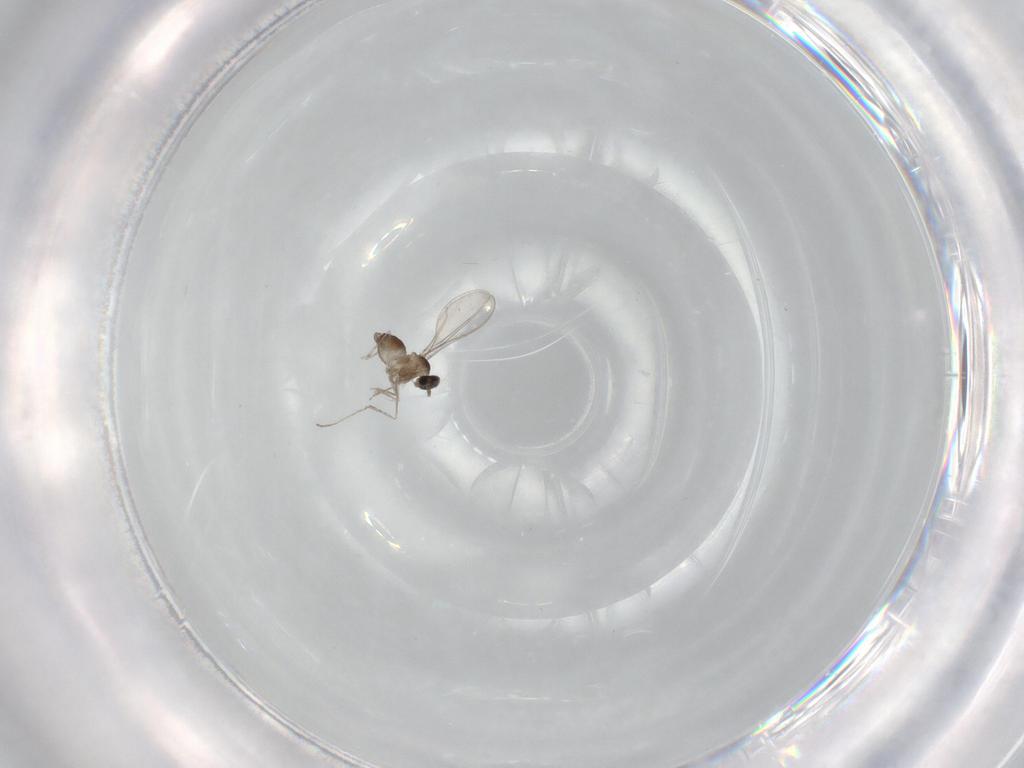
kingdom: Animalia
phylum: Arthropoda
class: Insecta
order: Diptera
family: Cecidomyiidae
